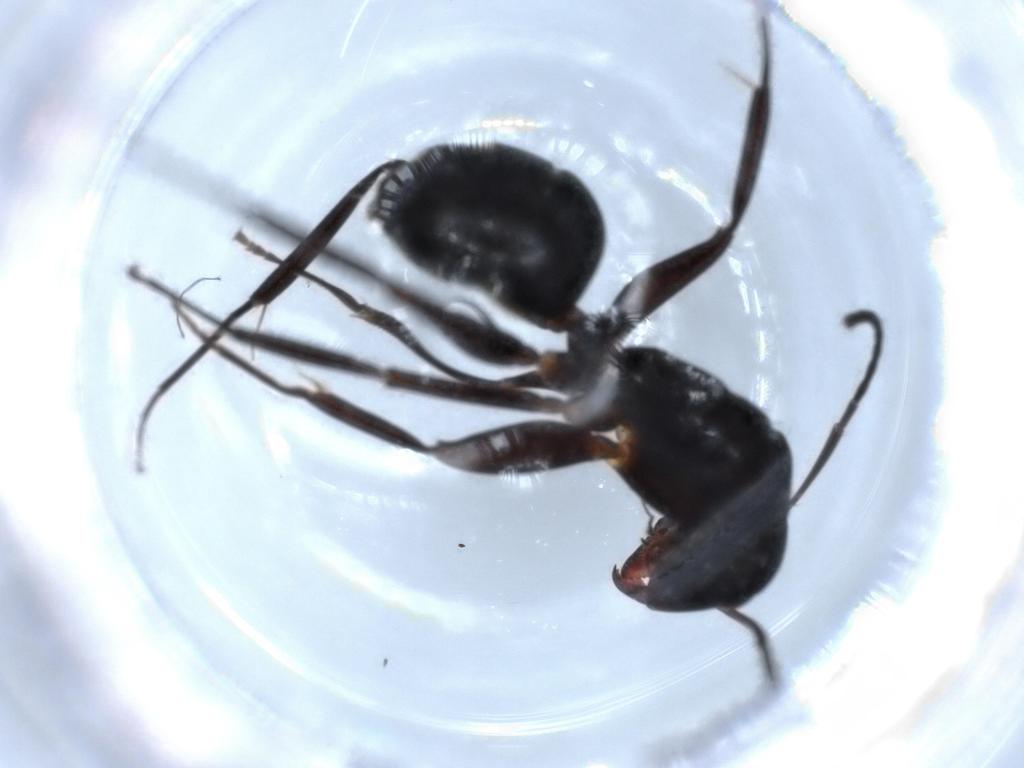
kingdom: Animalia
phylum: Arthropoda
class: Insecta
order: Hymenoptera
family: Formicidae
